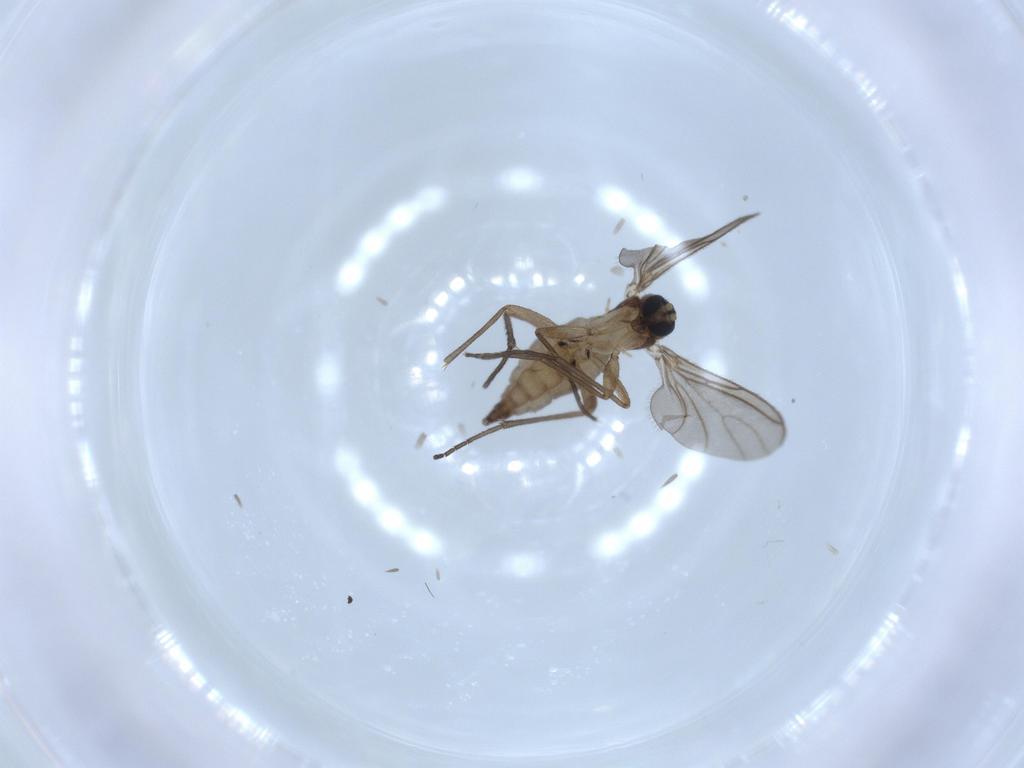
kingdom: Animalia
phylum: Arthropoda
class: Insecta
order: Diptera
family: Sciaridae
